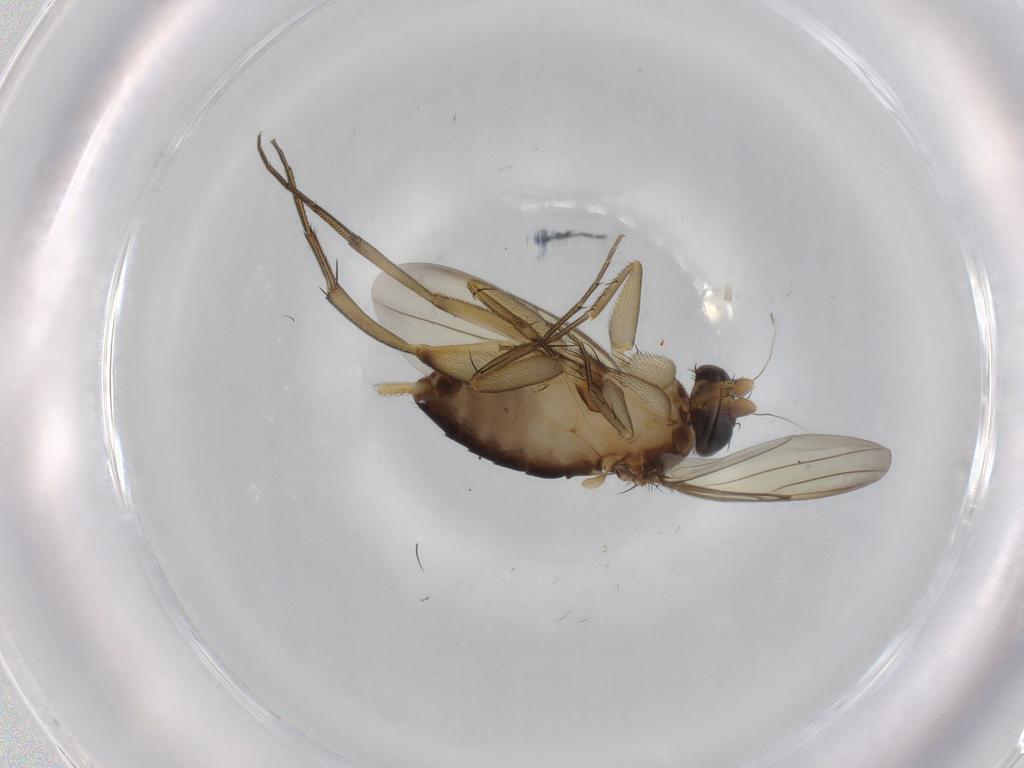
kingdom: Animalia
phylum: Arthropoda
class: Insecta
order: Diptera
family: Phoridae
